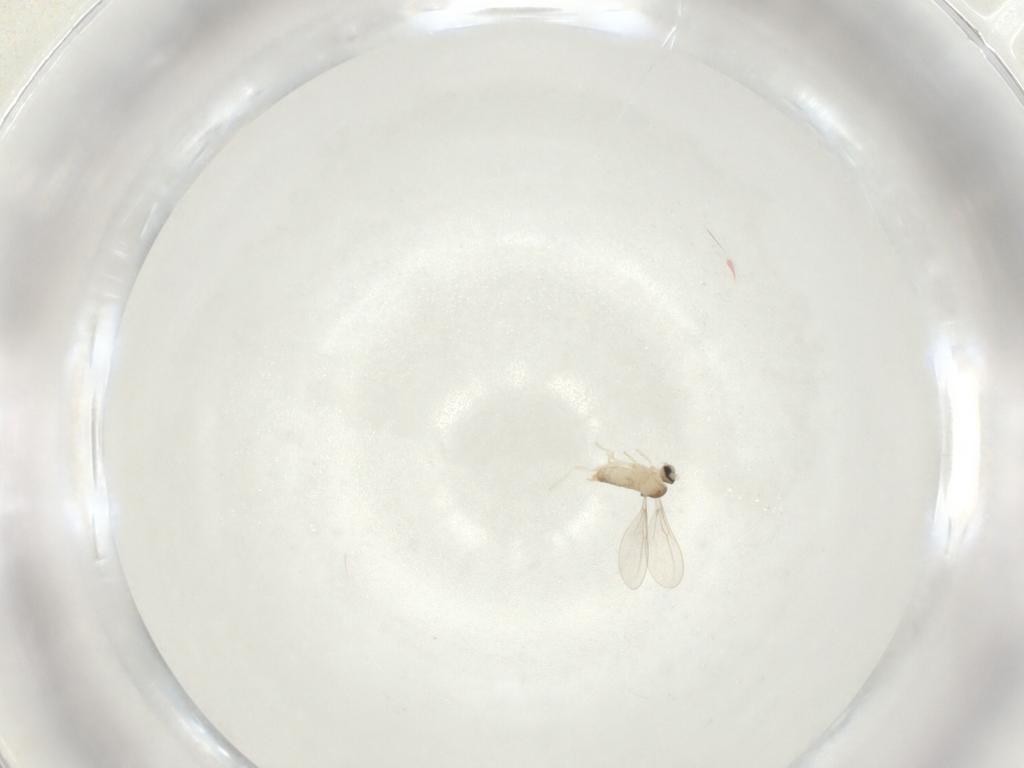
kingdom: Animalia
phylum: Arthropoda
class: Insecta
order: Diptera
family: Cecidomyiidae
